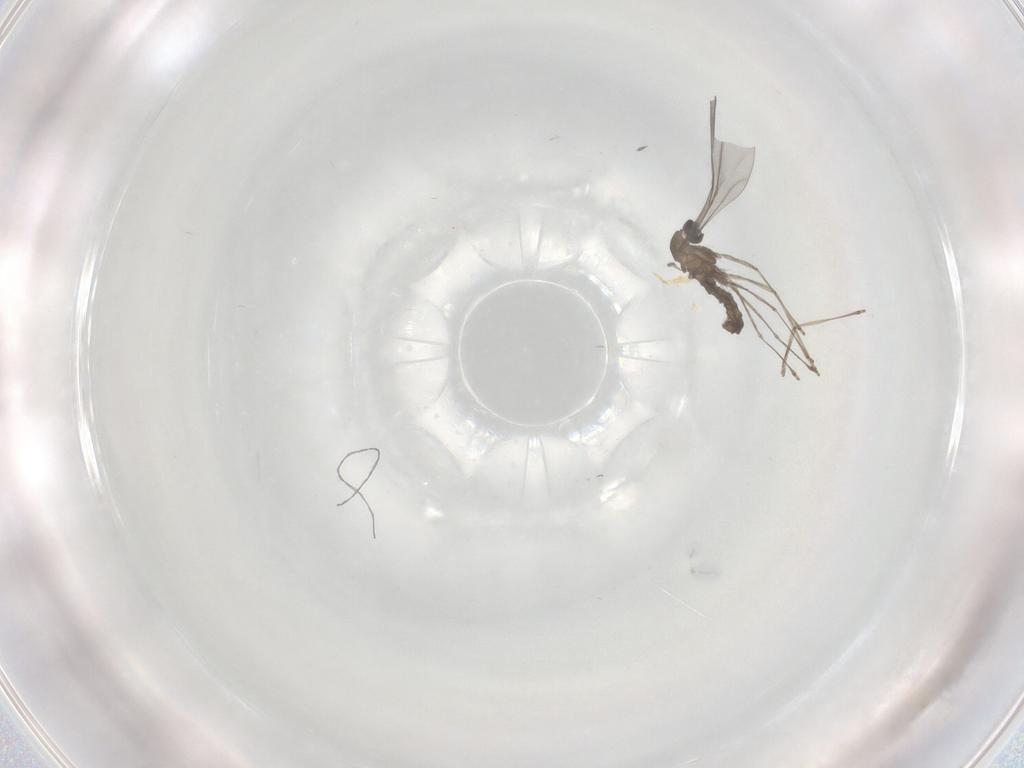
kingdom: Animalia
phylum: Arthropoda
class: Insecta
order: Diptera
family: Cecidomyiidae
